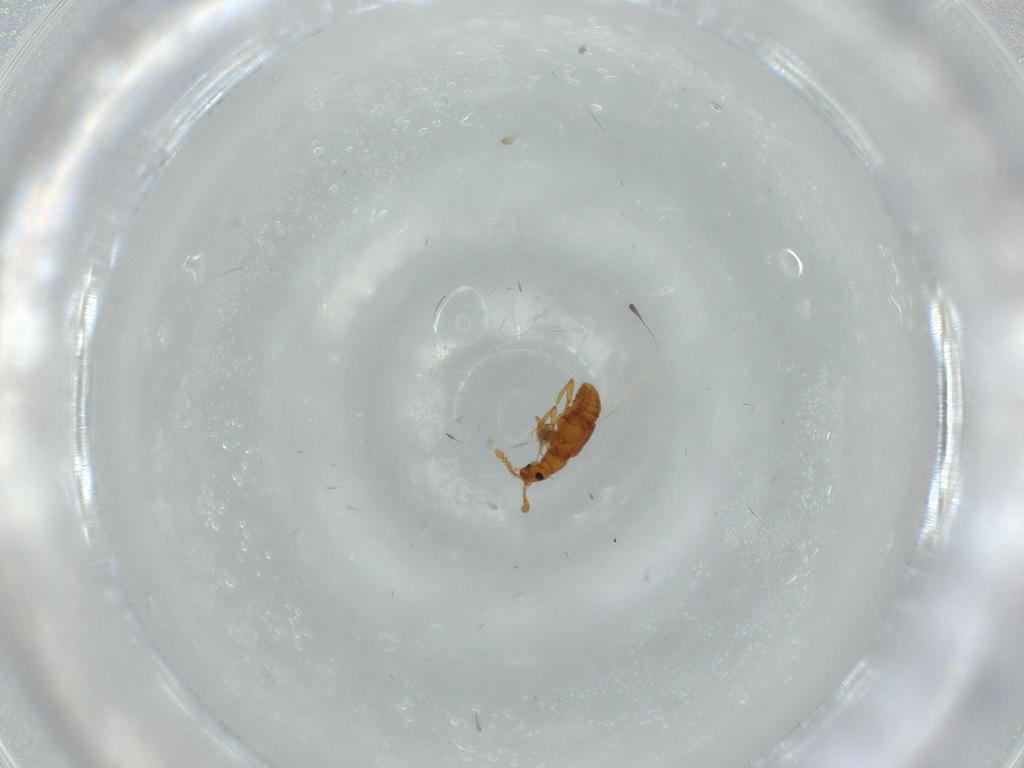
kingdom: Animalia
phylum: Arthropoda
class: Insecta
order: Coleoptera
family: Staphylinidae
